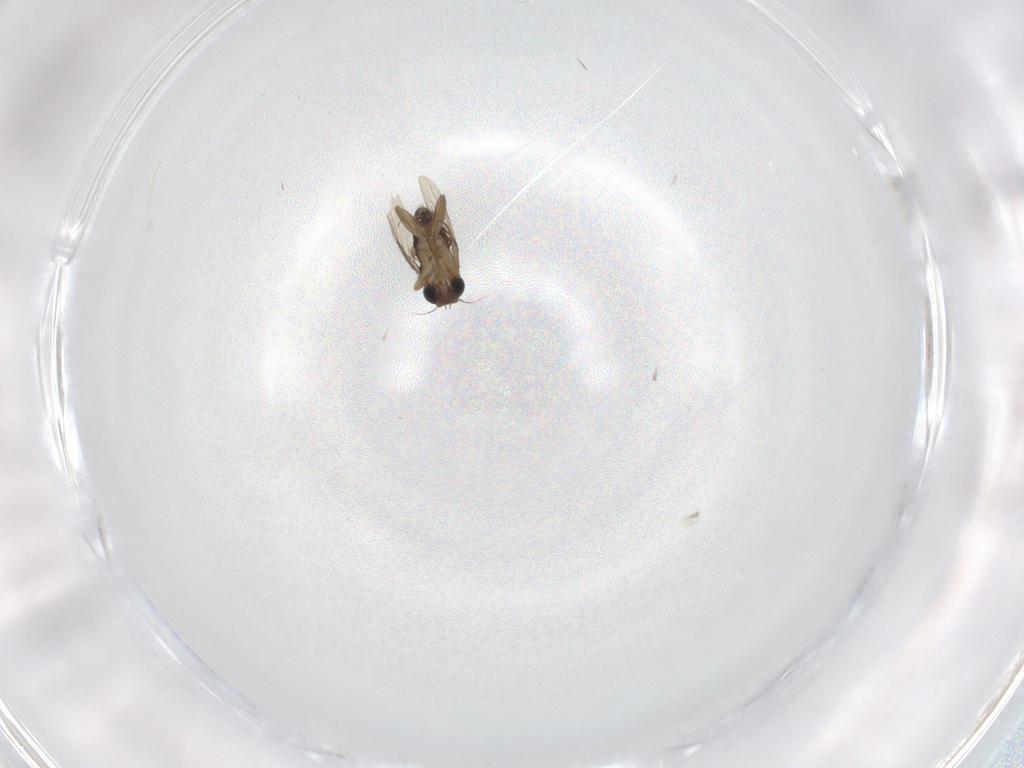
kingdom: Animalia
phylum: Arthropoda
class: Insecta
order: Diptera
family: Phoridae
